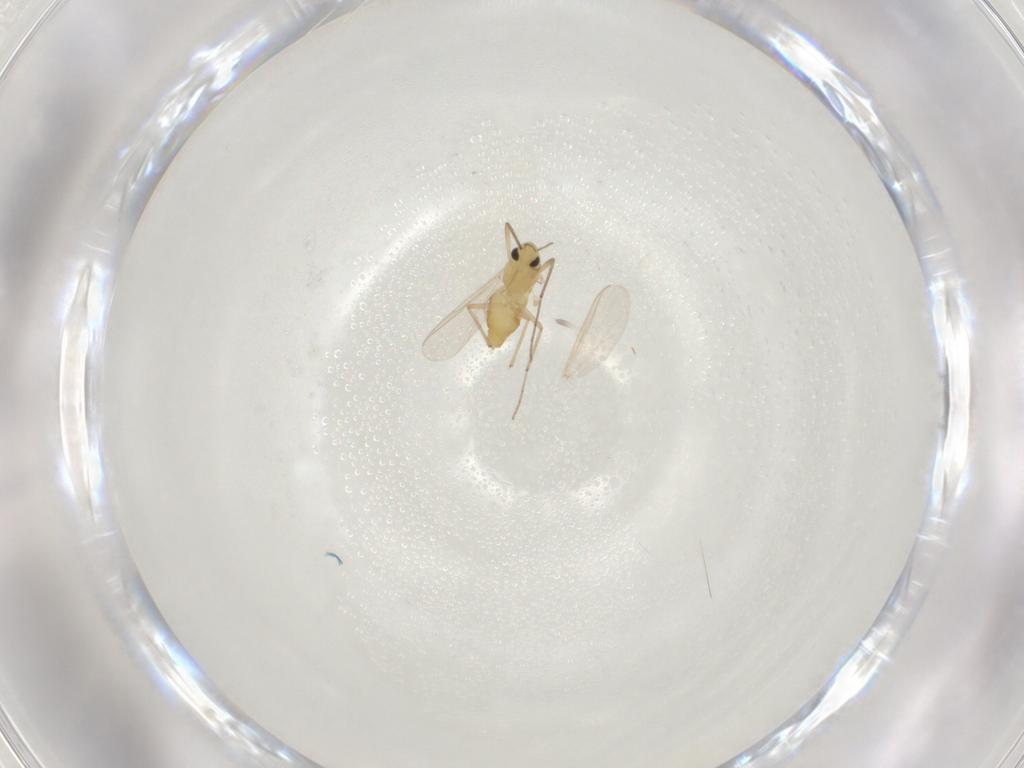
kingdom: Animalia
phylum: Arthropoda
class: Insecta
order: Diptera
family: Chironomidae
